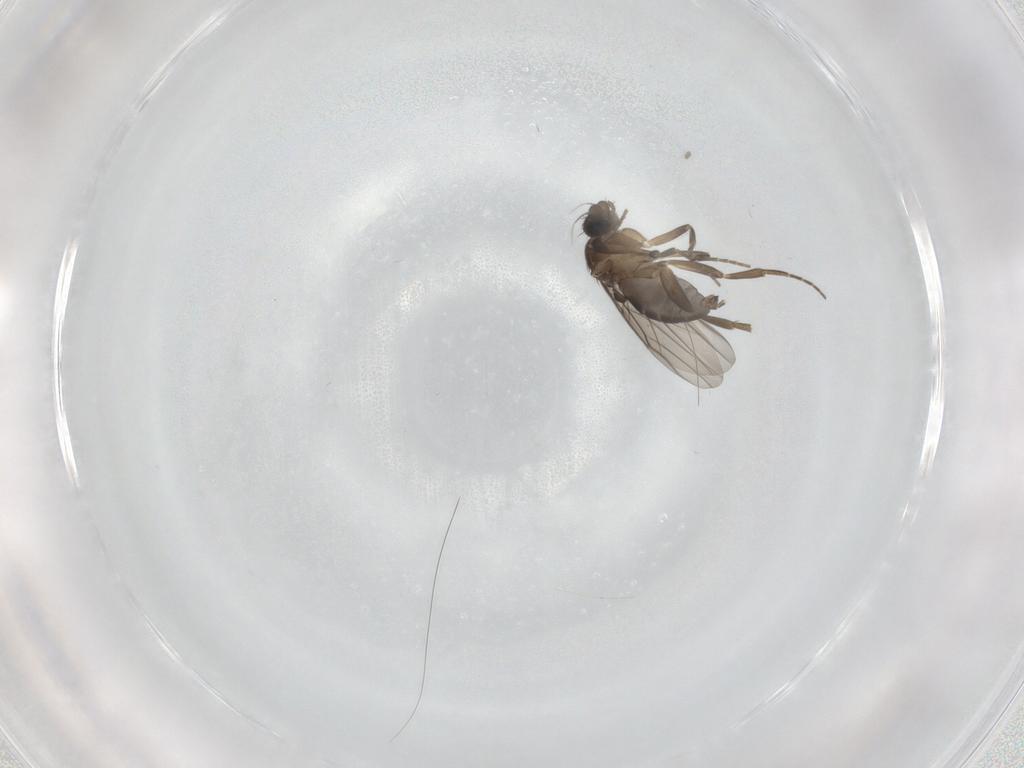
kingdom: Animalia
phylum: Arthropoda
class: Insecta
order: Diptera
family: Phoridae
